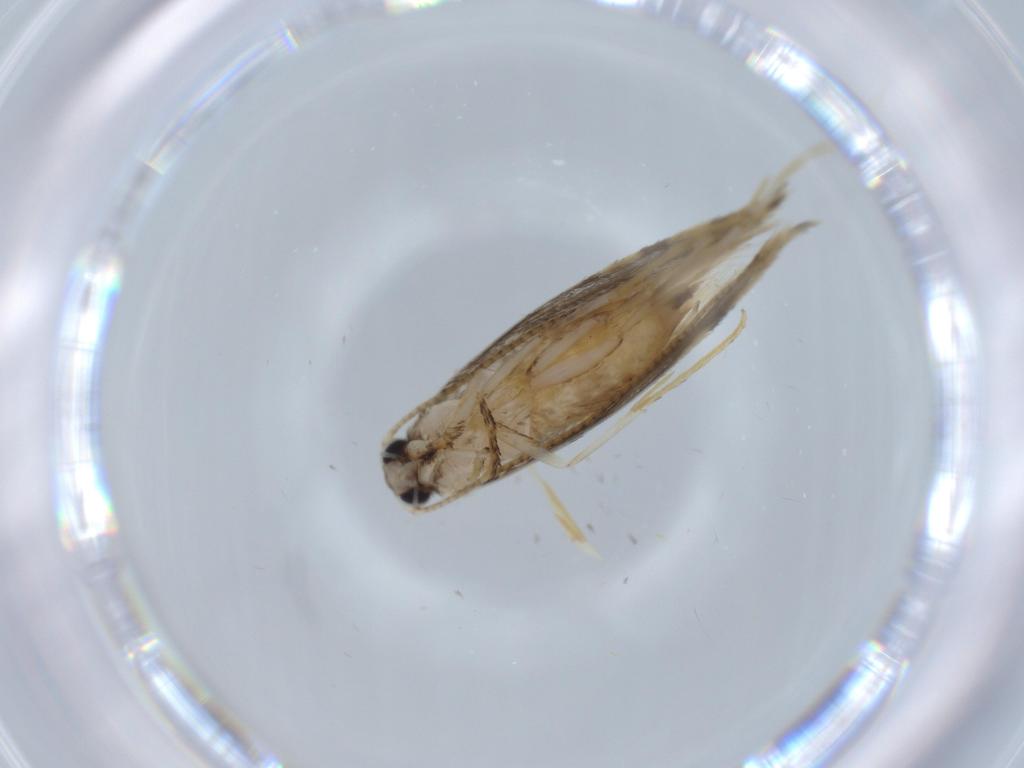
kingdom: Animalia
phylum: Arthropoda
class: Insecta
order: Lepidoptera
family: Tineidae
